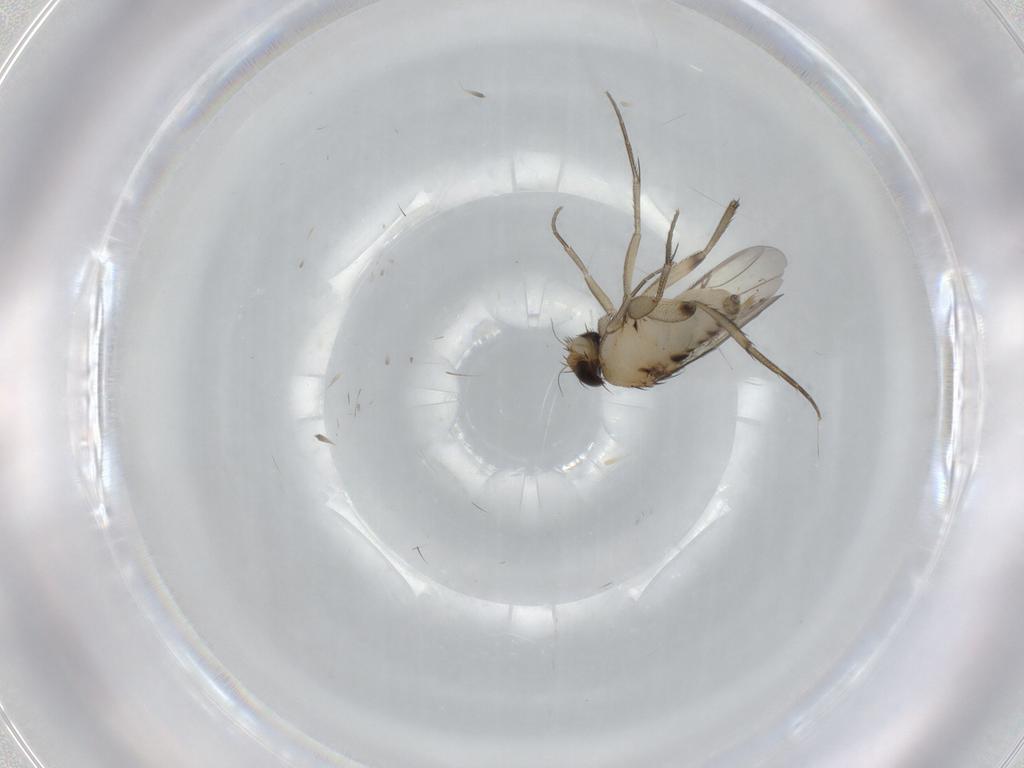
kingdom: Animalia
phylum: Arthropoda
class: Insecta
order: Diptera
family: Phoridae
